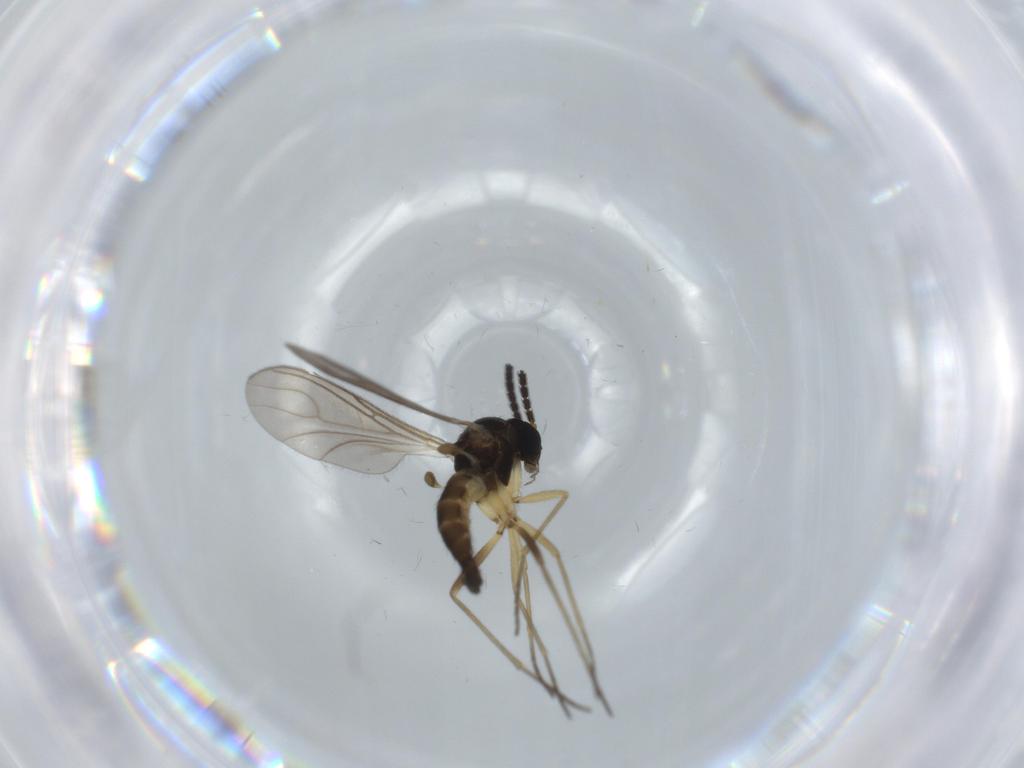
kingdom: Animalia
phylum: Arthropoda
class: Insecta
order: Diptera
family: Sciaridae
